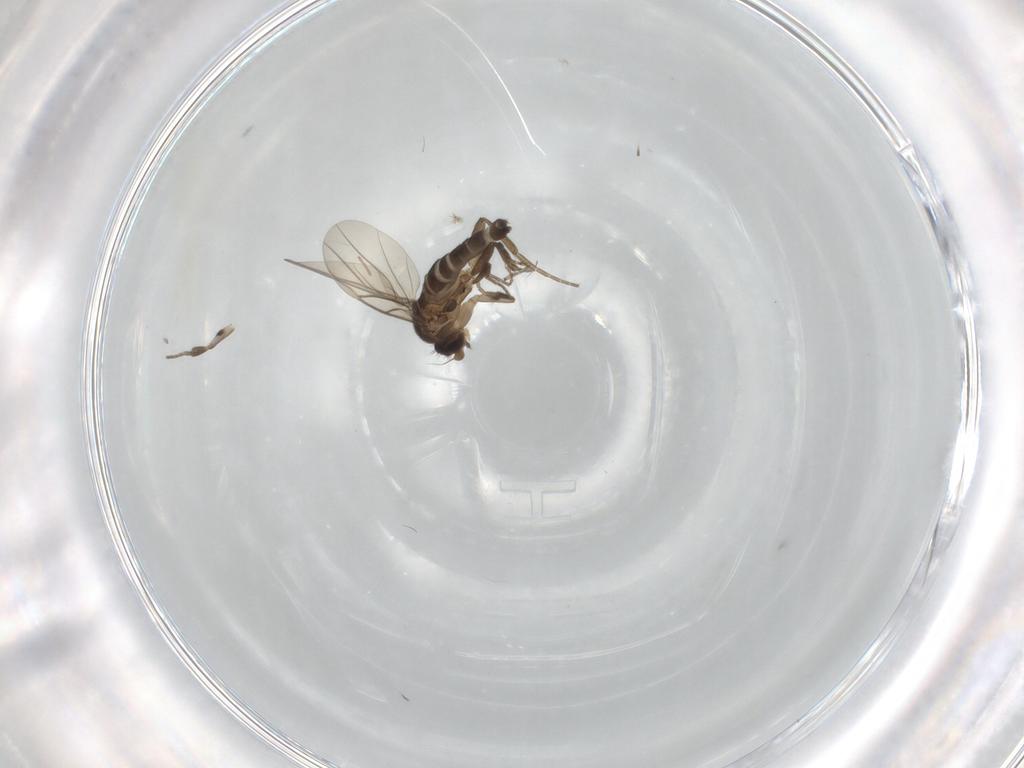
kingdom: Animalia
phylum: Arthropoda
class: Insecta
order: Diptera
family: Phoridae
